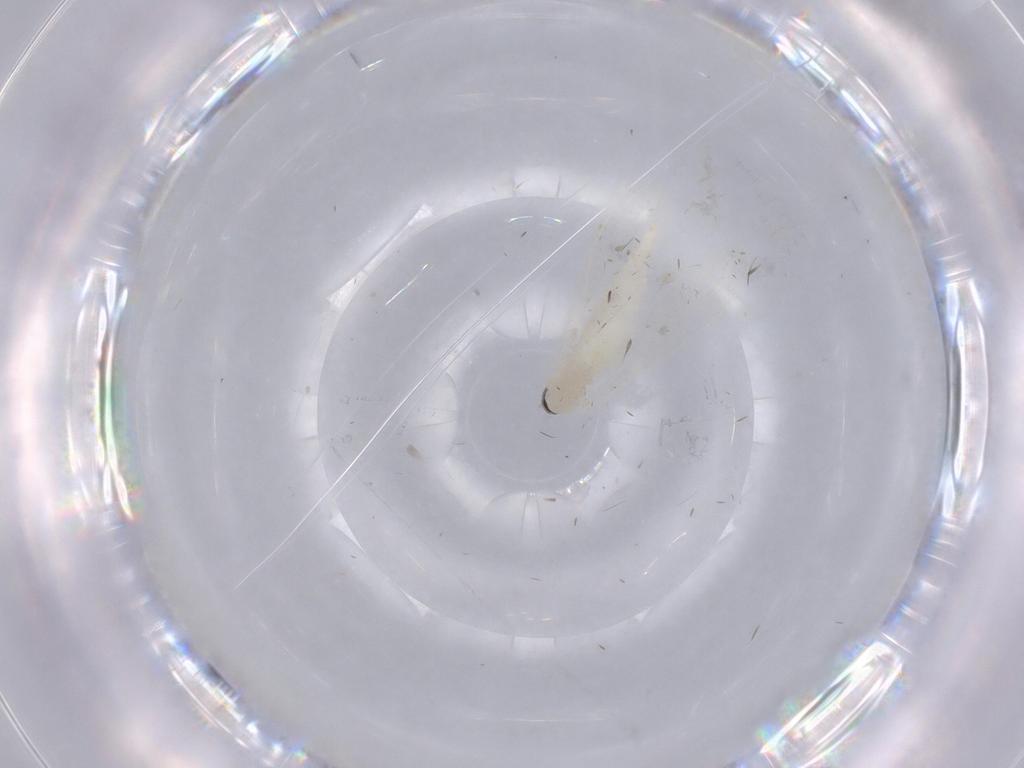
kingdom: Animalia
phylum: Arthropoda
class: Insecta
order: Diptera
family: Cecidomyiidae
